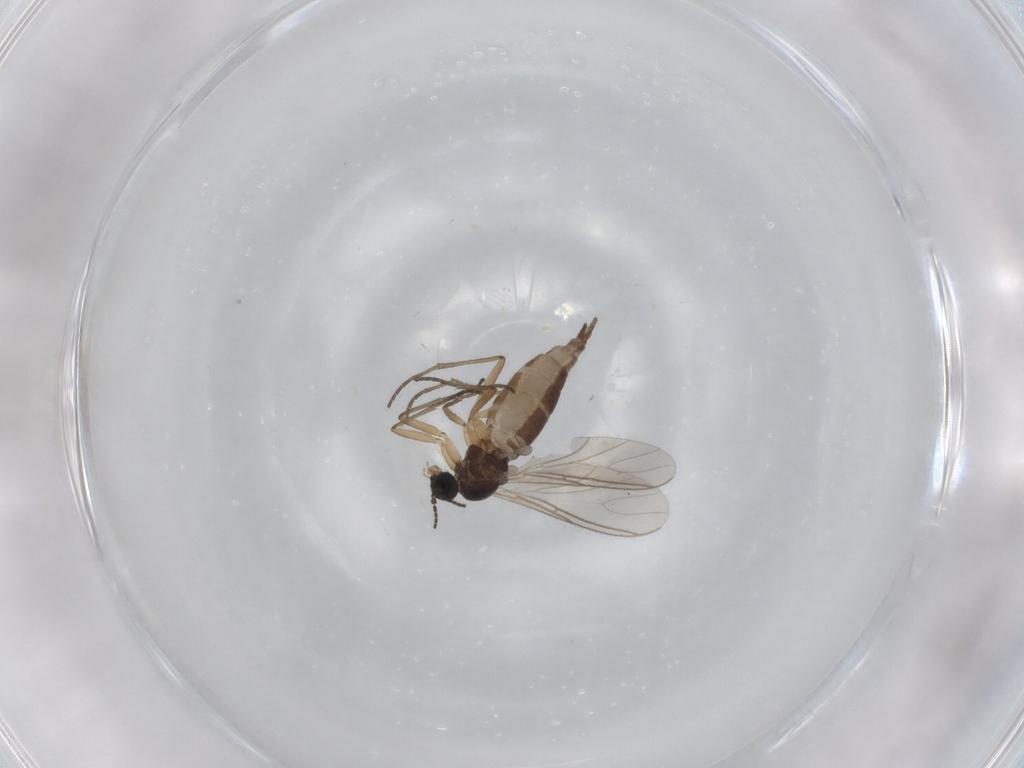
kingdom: Animalia
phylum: Arthropoda
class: Insecta
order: Diptera
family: Sciaridae
